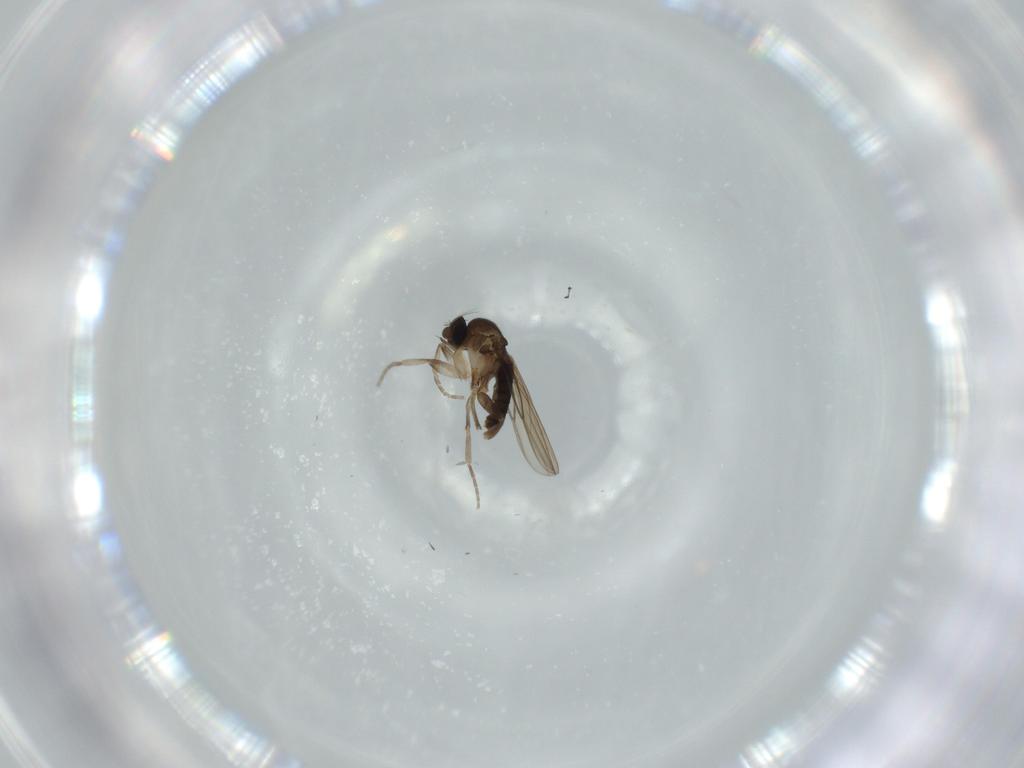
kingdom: Animalia
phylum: Arthropoda
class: Insecta
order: Diptera
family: Phoridae
